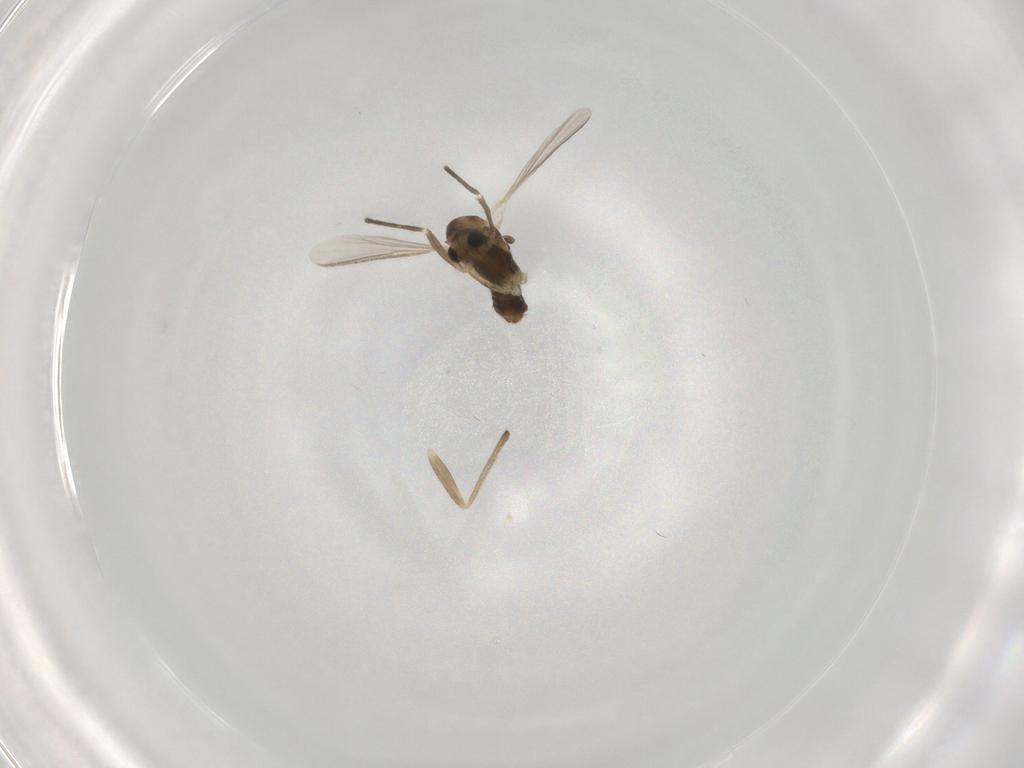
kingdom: Animalia
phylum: Arthropoda
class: Insecta
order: Diptera
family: Chironomidae
